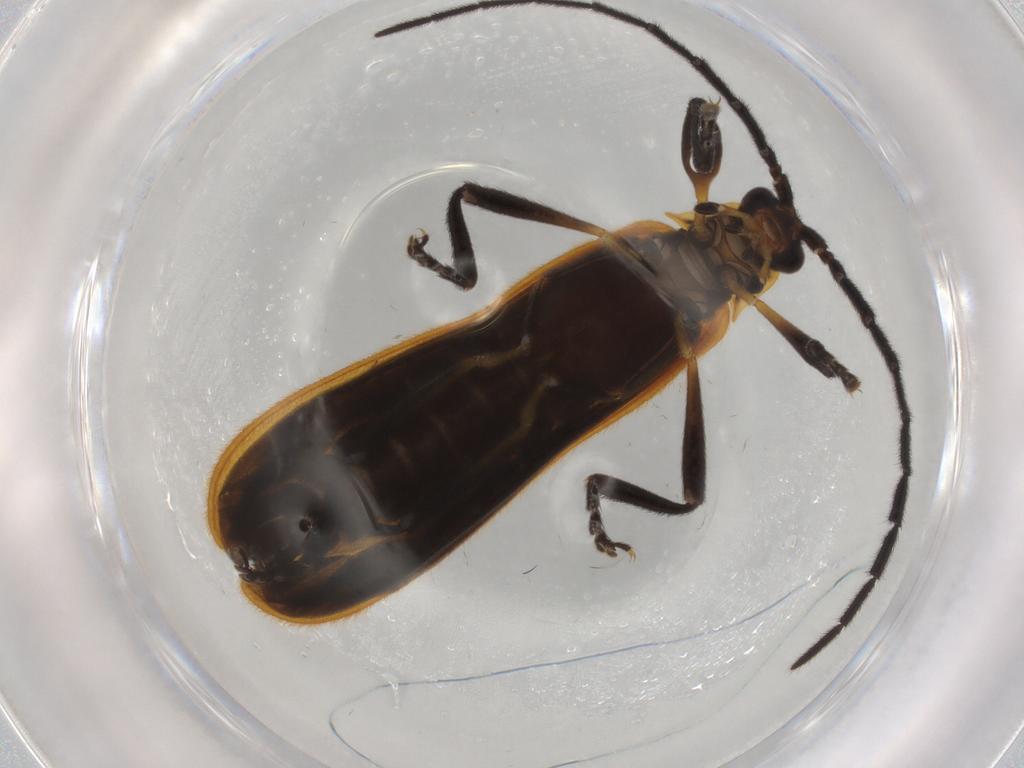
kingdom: Animalia
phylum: Arthropoda
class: Insecta
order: Coleoptera
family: Lycidae
